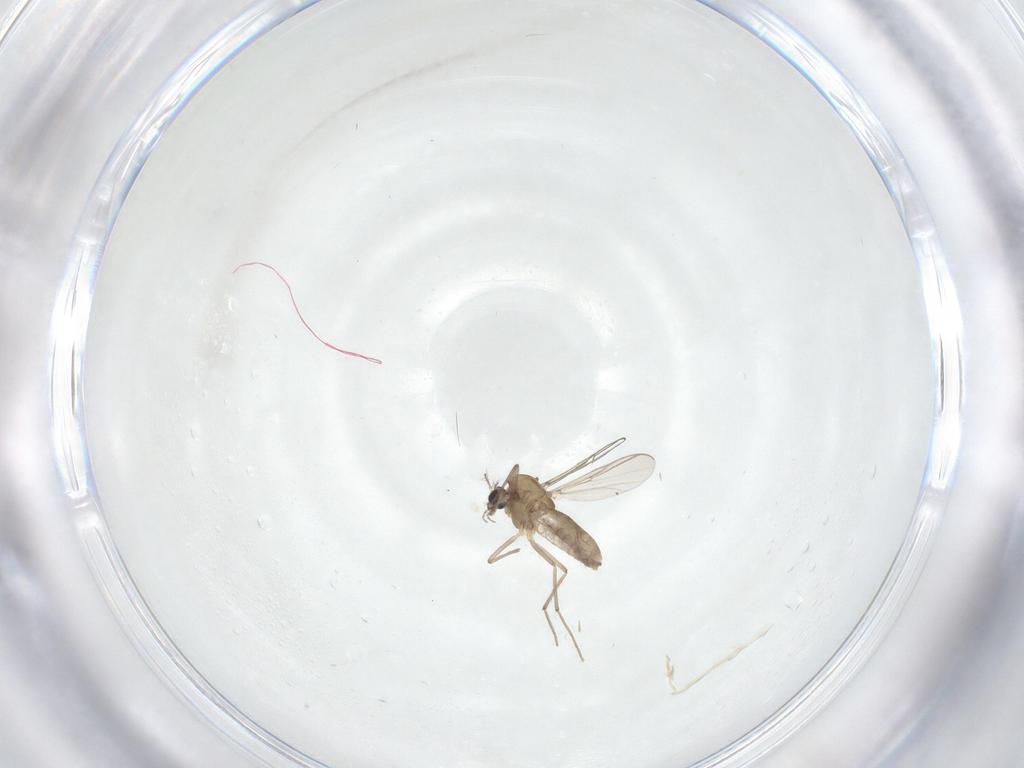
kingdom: Animalia
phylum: Arthropoda
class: Insecta
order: Diptera
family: Chironomidae
